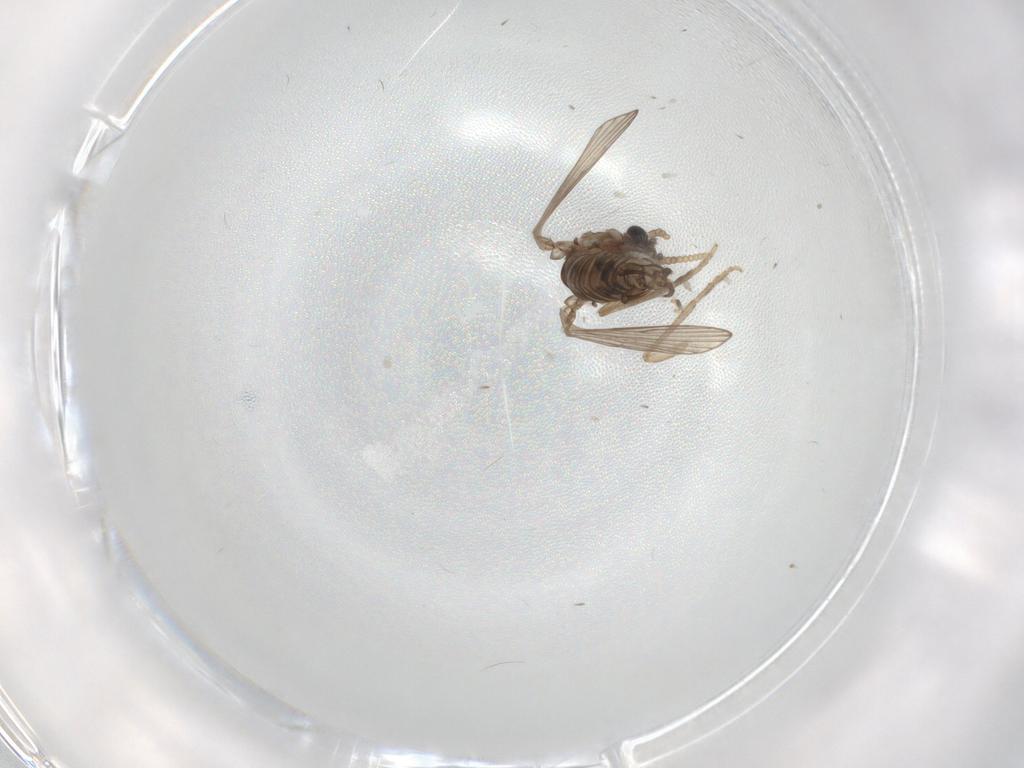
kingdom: Animalia
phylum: Arthropoda
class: Insecta
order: Diptera
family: Psychodidae
